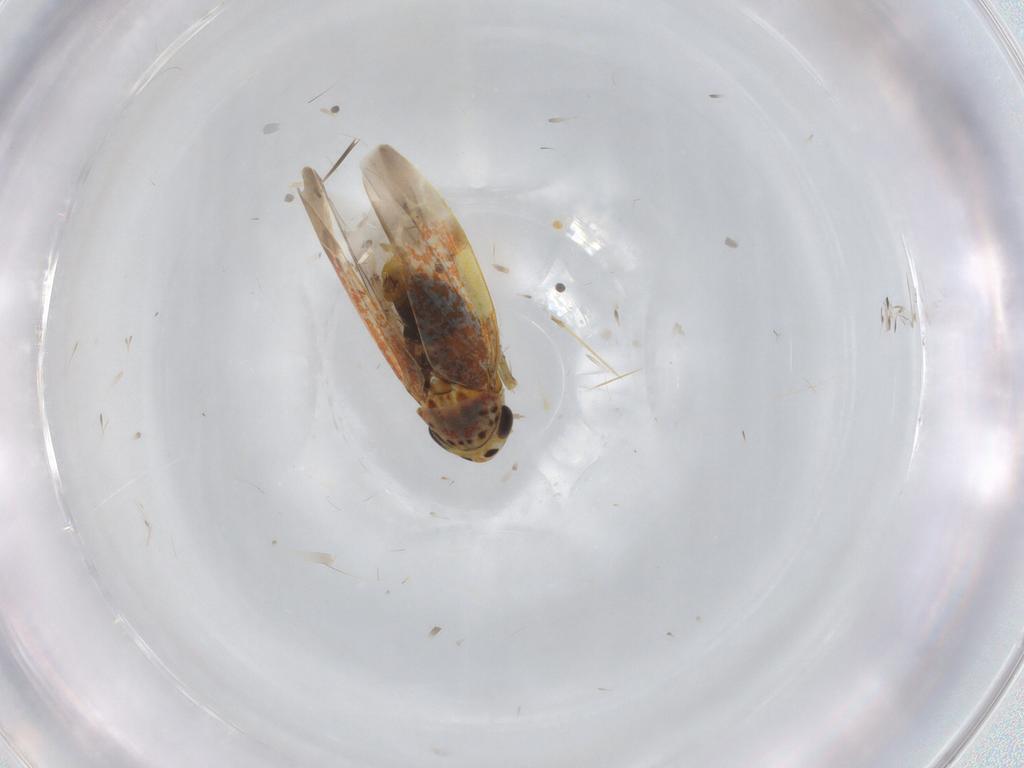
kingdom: Animalia
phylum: Arthropoda
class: Insecta
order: Hemiptera
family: Cicadellidae
